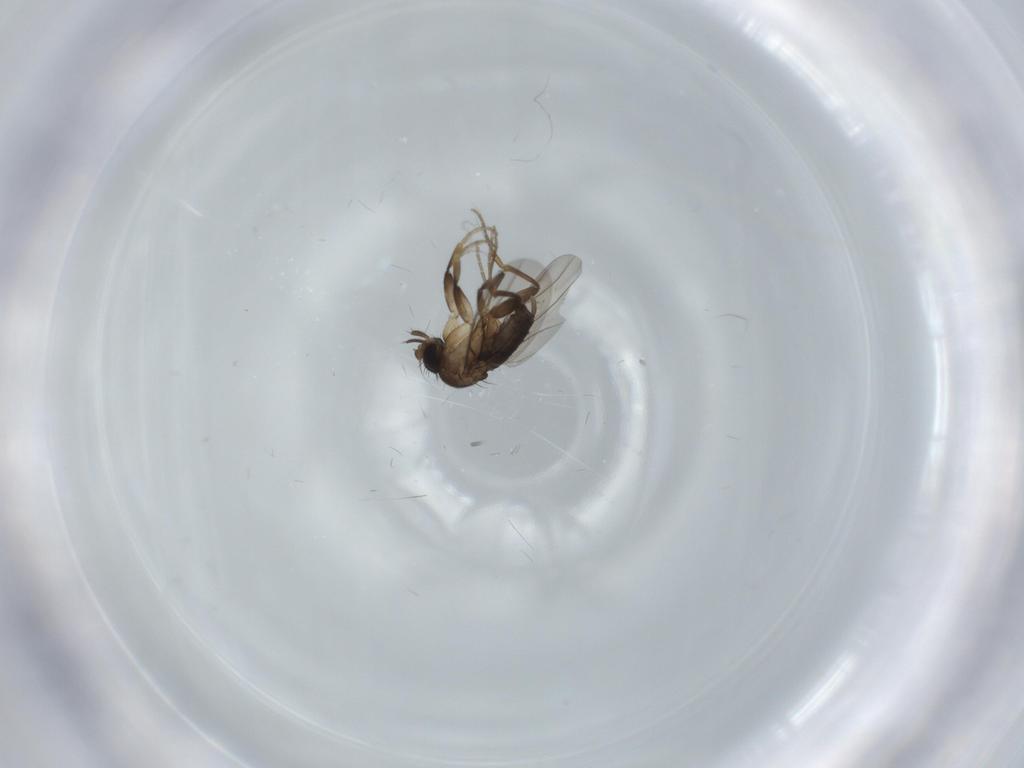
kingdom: Animalia
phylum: Arthropoda
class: Insecta
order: Diptera
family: Phoridae
